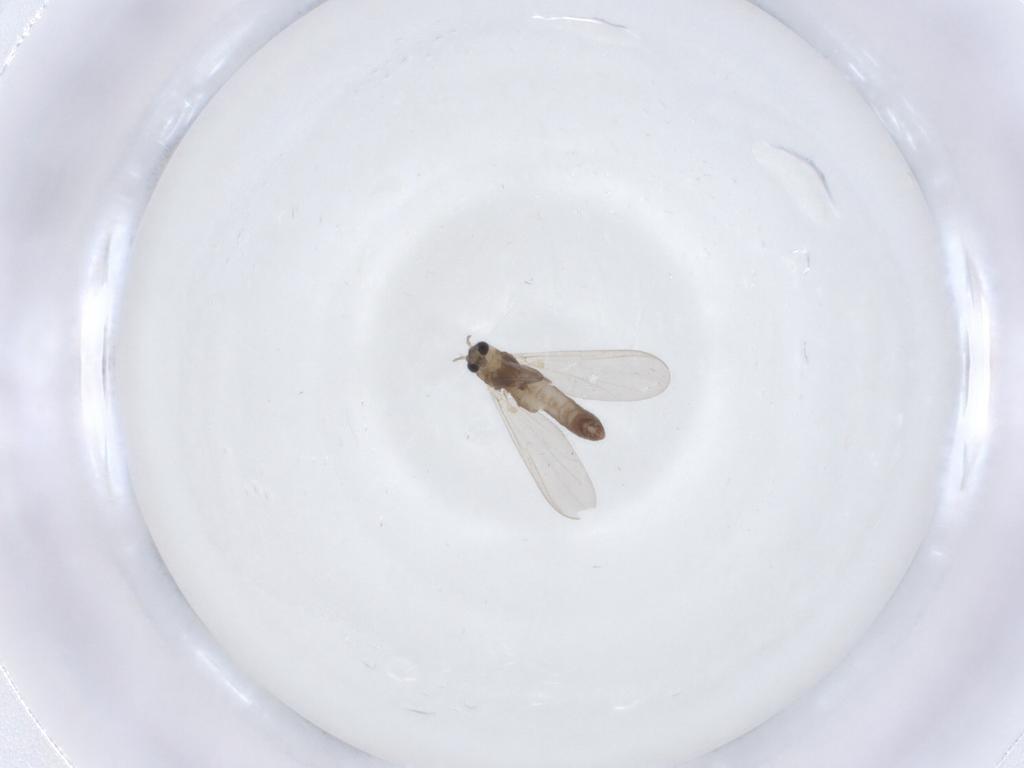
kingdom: Animalia
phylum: Arthropoda
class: Insecta
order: Diptera
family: Chironomidae
